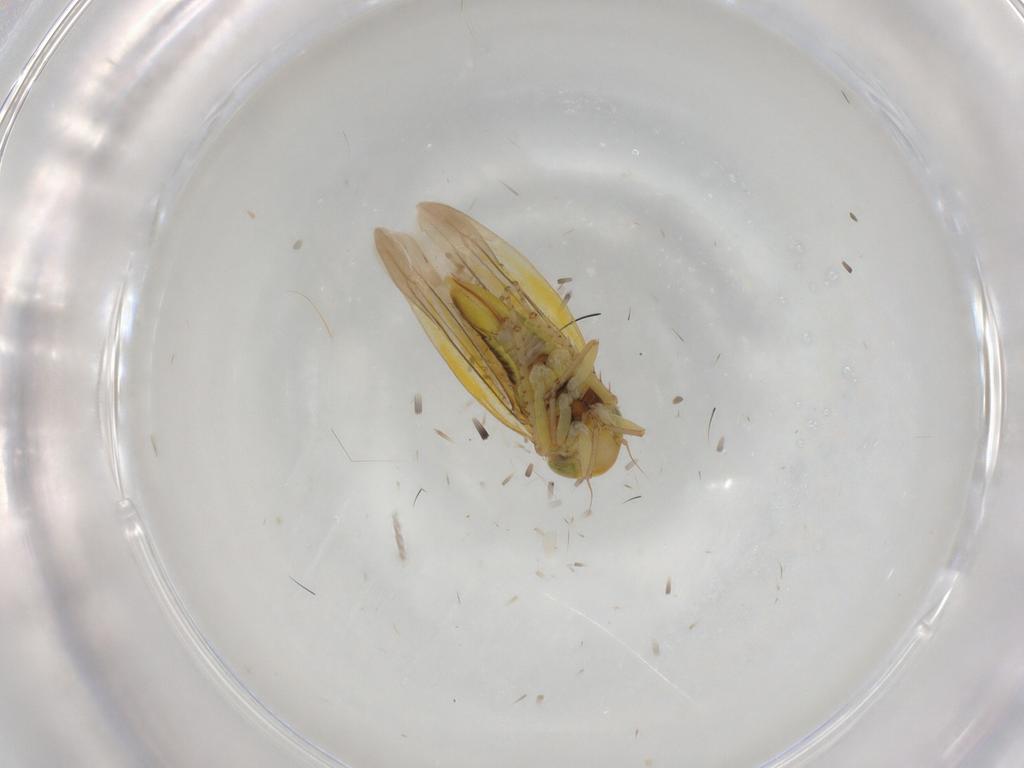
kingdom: Animalia
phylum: Arthropoda
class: Insecta
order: Hemiptera
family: Cicadellidae
